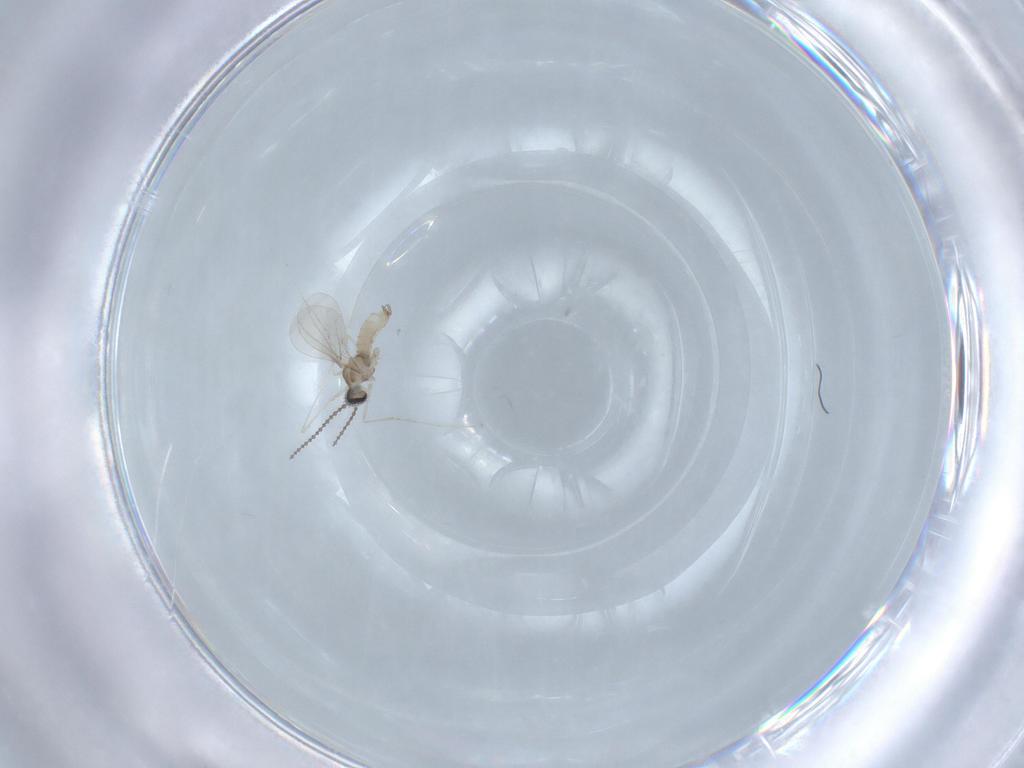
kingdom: Animalia
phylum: Arthropoda
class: Insecta
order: Diptera
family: Cecidomyiidae
